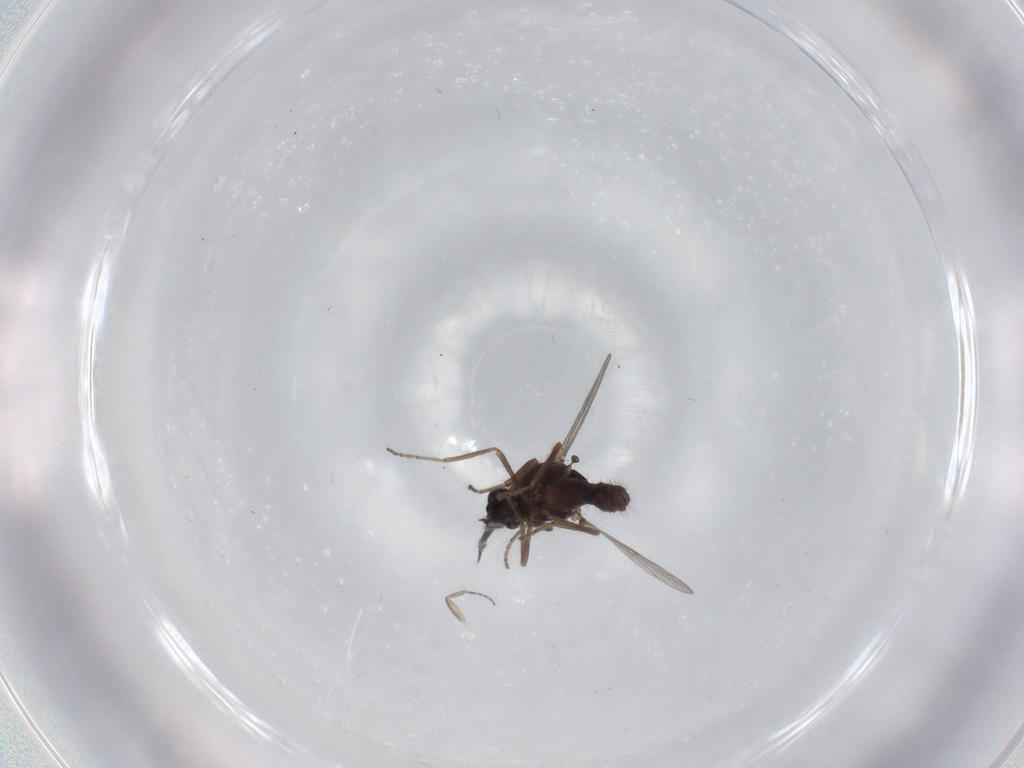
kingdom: Animalia
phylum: Arthropoda
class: Insecta
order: Diptera
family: Ceratopogonidae
